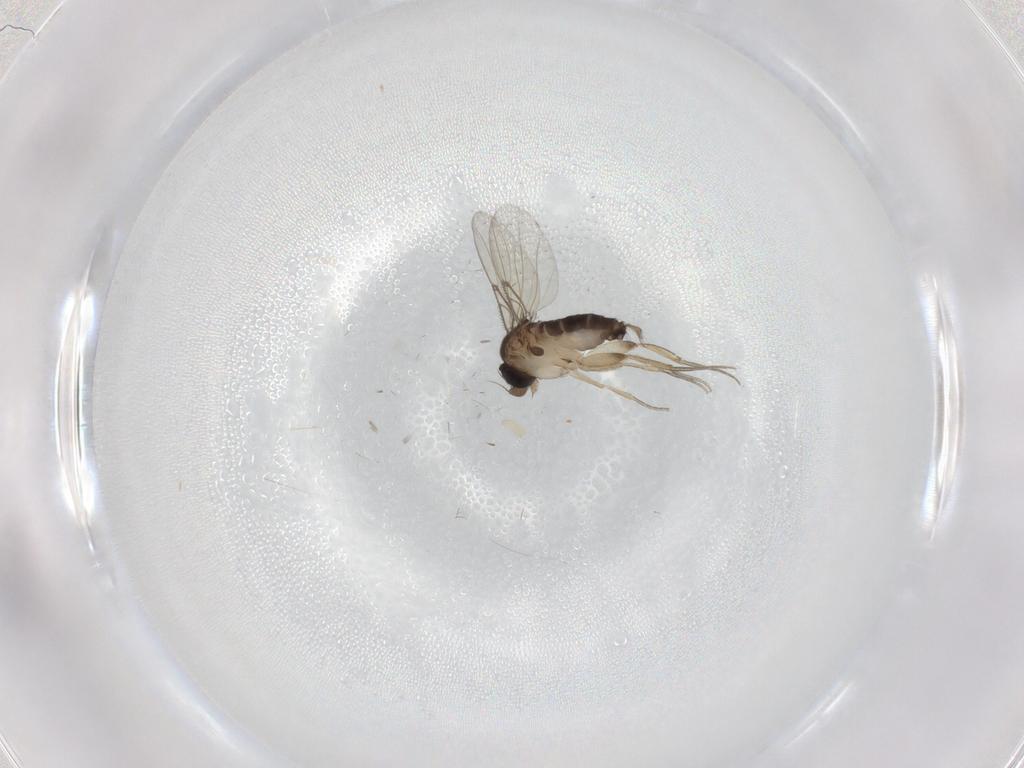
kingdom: Animalia
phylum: Arthropoda
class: Insecta
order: Diptera
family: Phoridae
